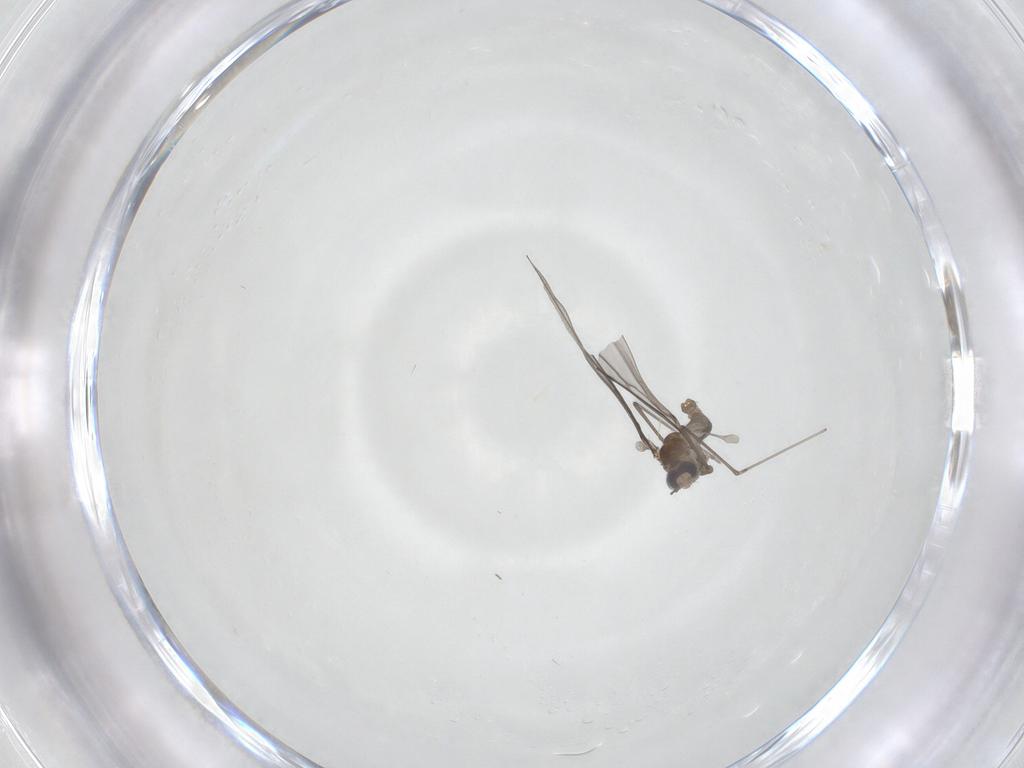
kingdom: Animalia
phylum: Arthropoda
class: Insecta
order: Diptera
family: Cecidomyiidae
